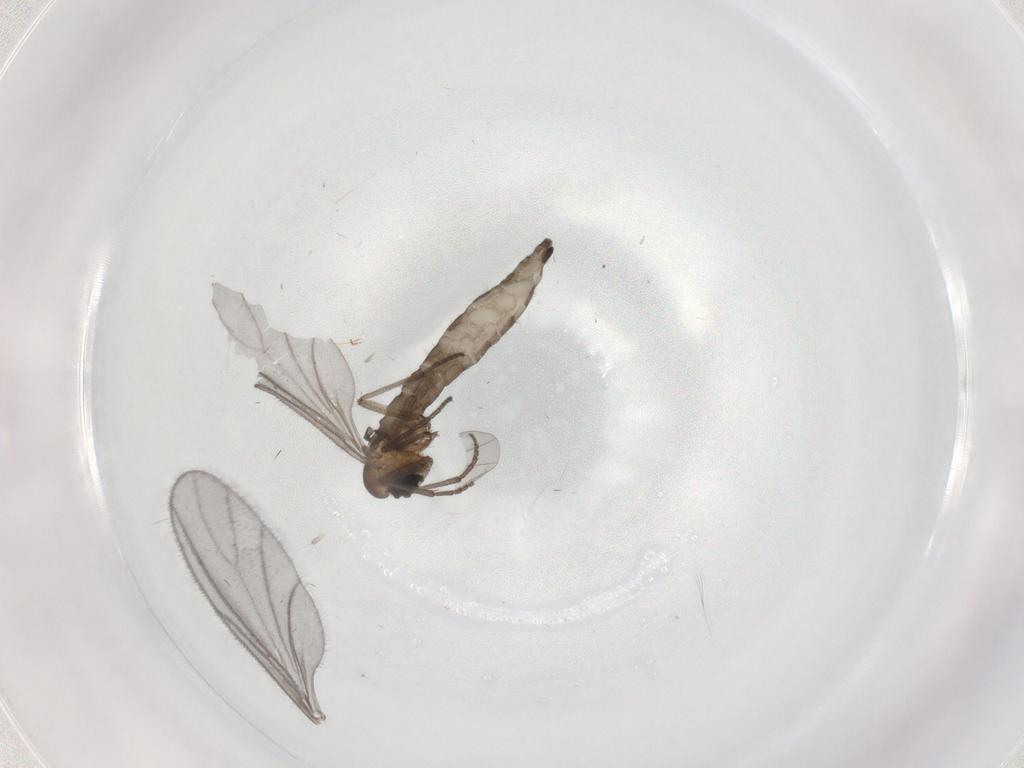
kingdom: Animalia
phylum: Arthropoda
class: Insecta
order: Diptera
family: Sciaridae
